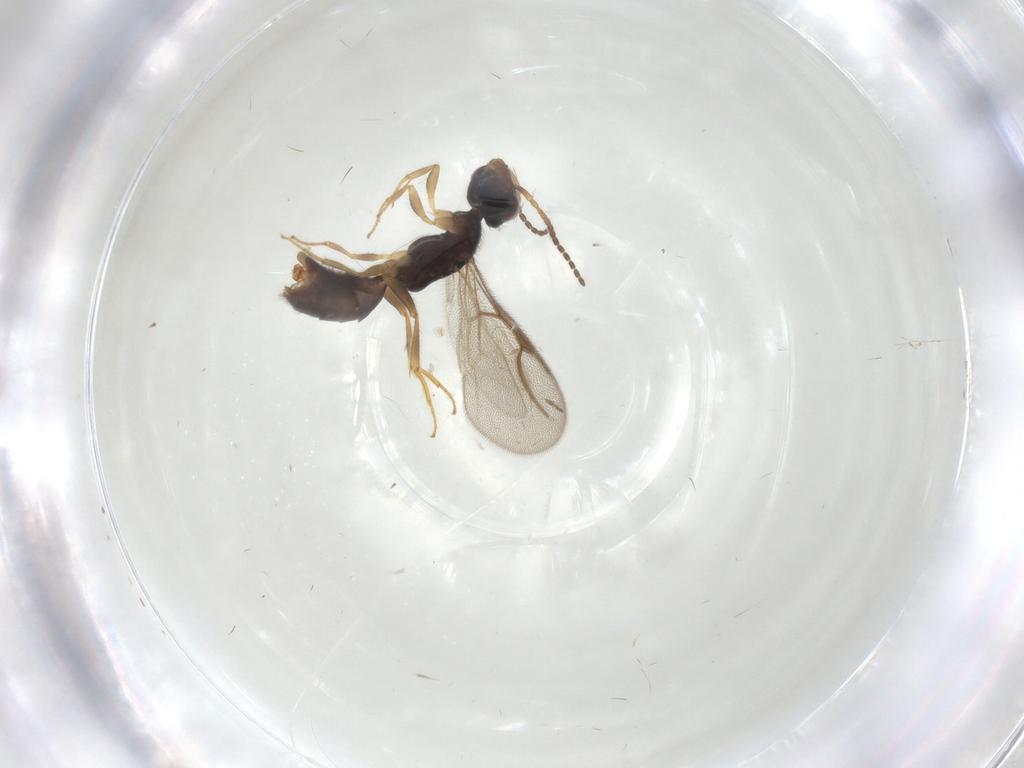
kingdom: Animalia
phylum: Arthropoda
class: Insecta
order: Hymenoptera
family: Bethylidae
